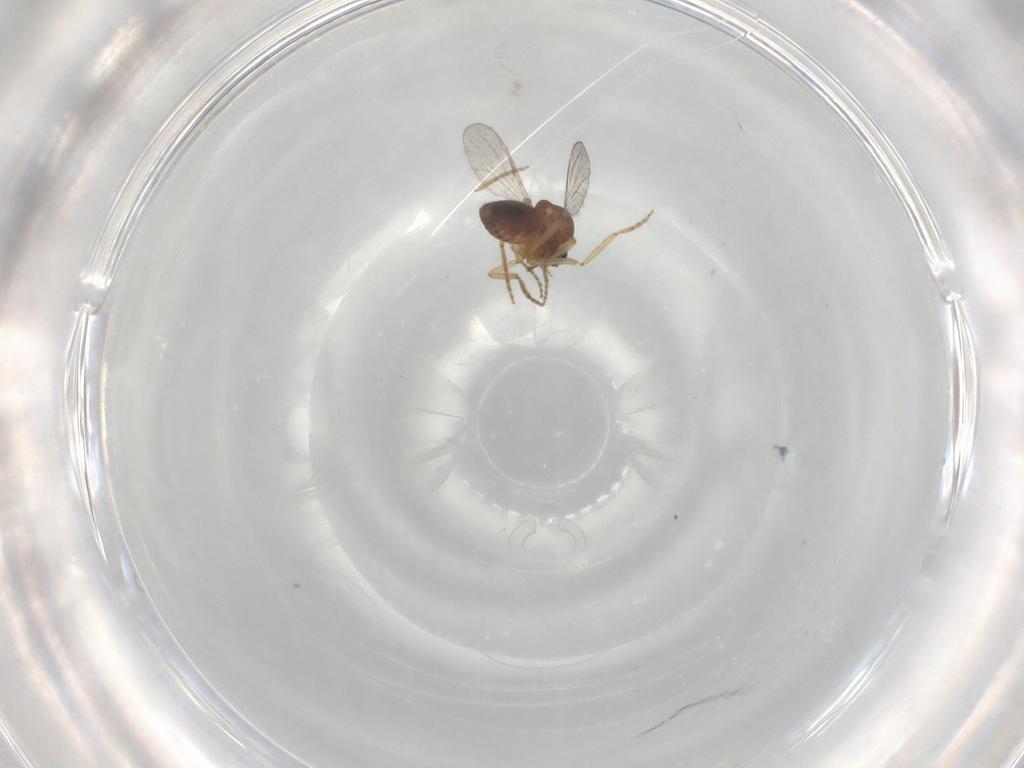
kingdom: Animalia
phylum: Arthropoda
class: Insecta
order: Diptera
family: Ceratopogonidae
